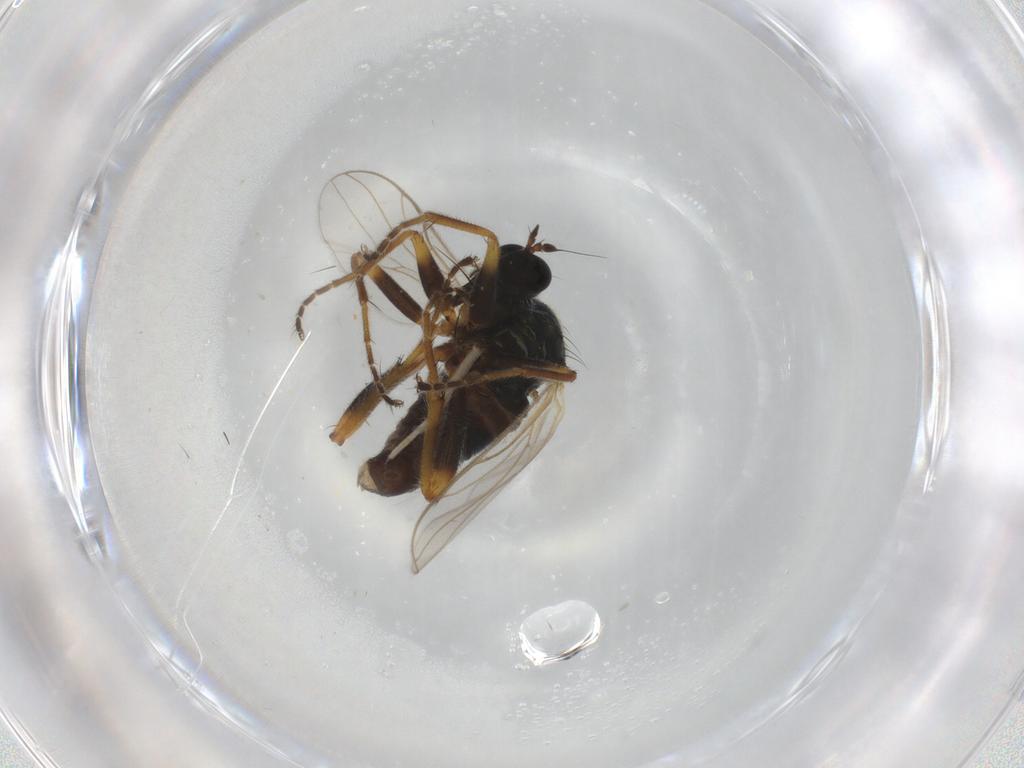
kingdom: Animalia
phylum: Arthropoda
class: Insecta
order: Diptera
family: Hybotidae
